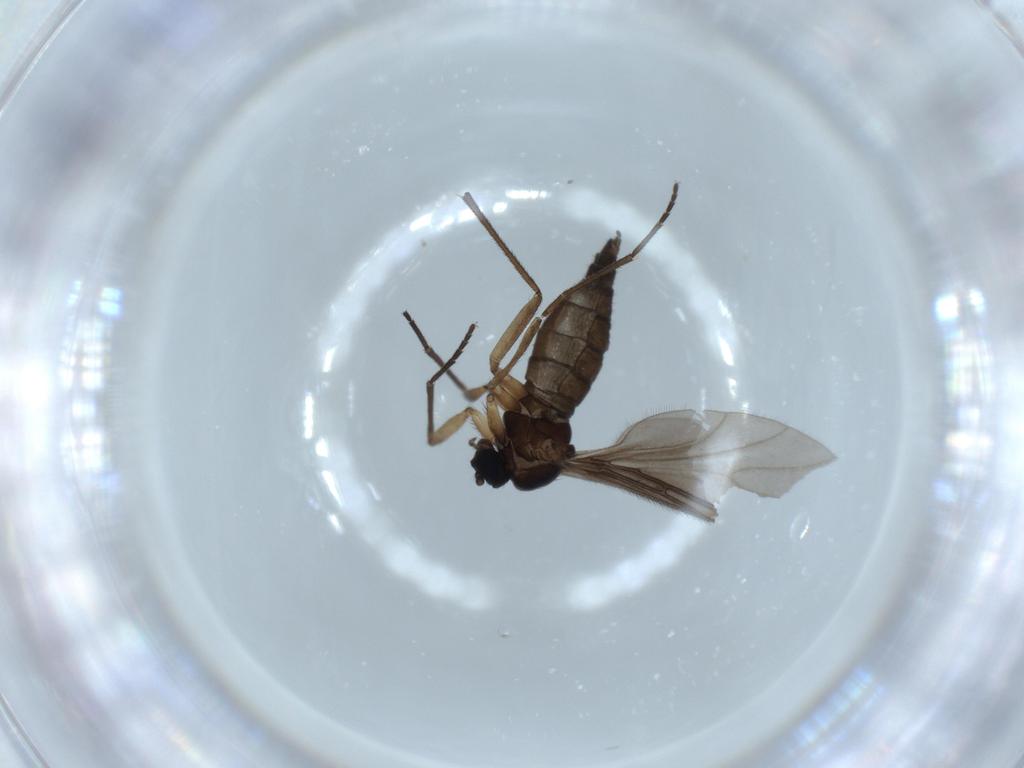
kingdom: Animalia
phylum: Arthropoda
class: Insecta
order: Diptera
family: Sciaridae
